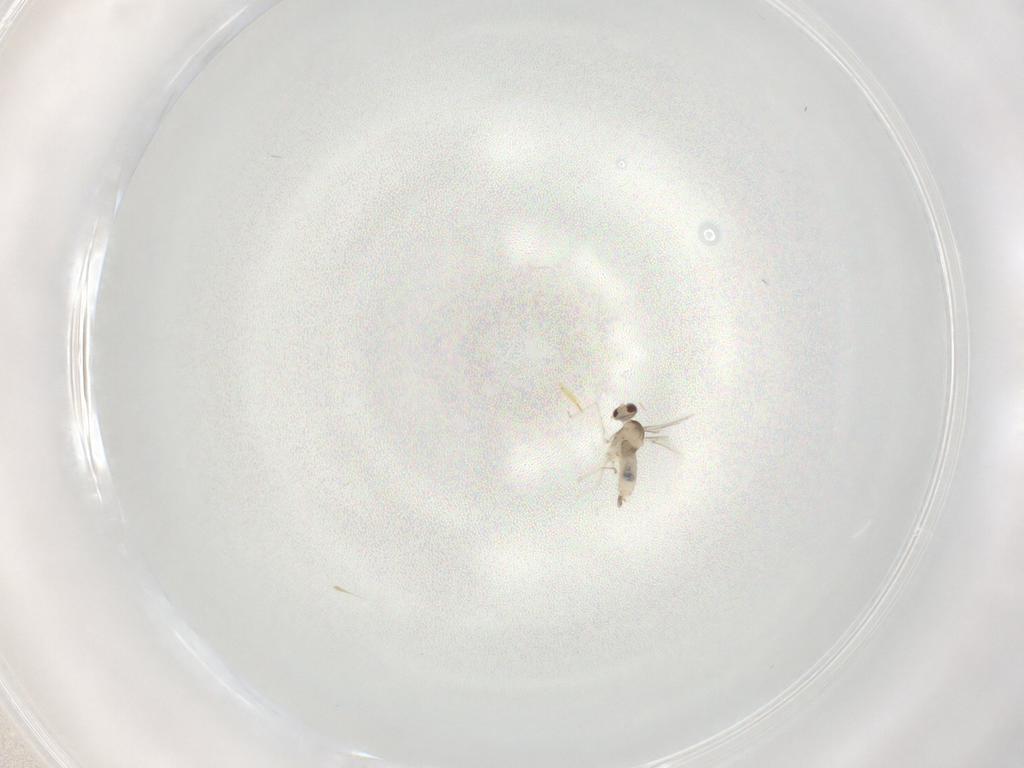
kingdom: Animalia
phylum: Arthropoda
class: Insecta
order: Diptera
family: Cecidomyiidae
